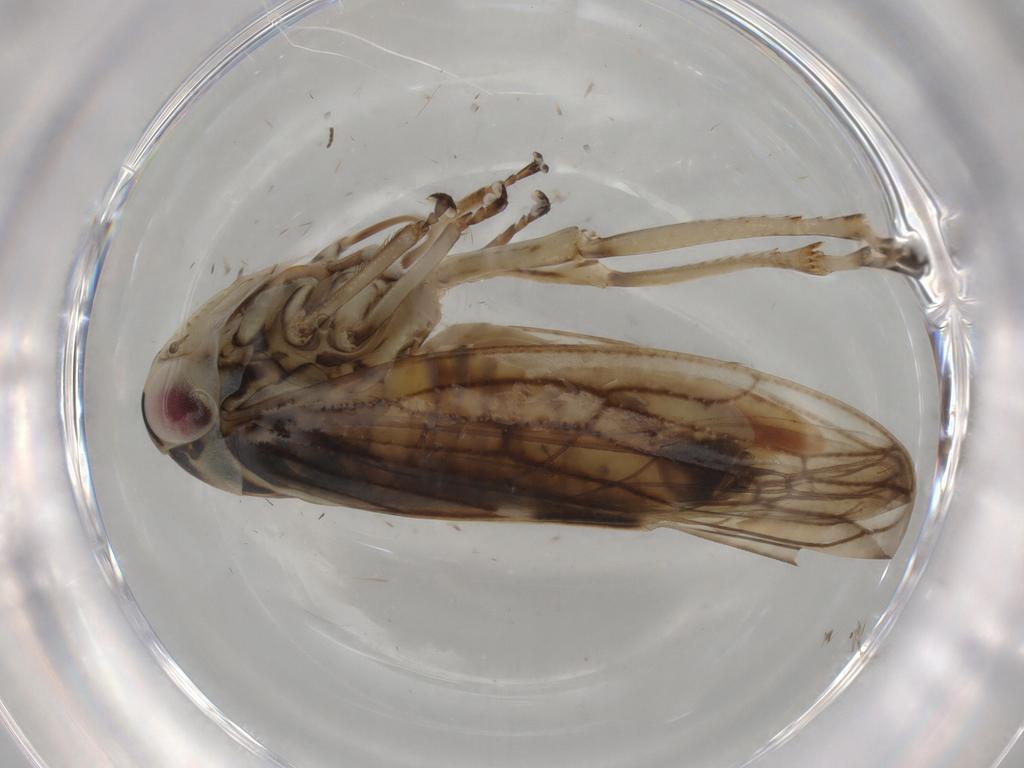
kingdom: Animalia
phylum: Arthropoda
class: Insecta
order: Hemiptera
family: Cicadellidae
